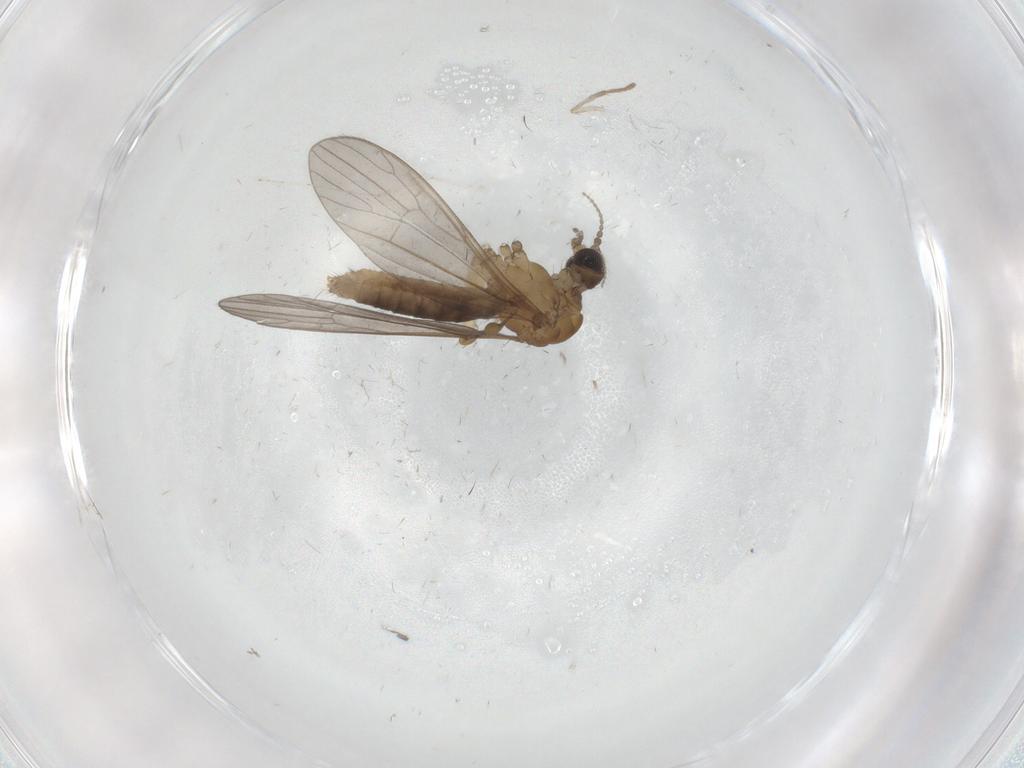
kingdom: Animalia
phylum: Arthropoda
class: Insecta
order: Diptera
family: Limoniidae
